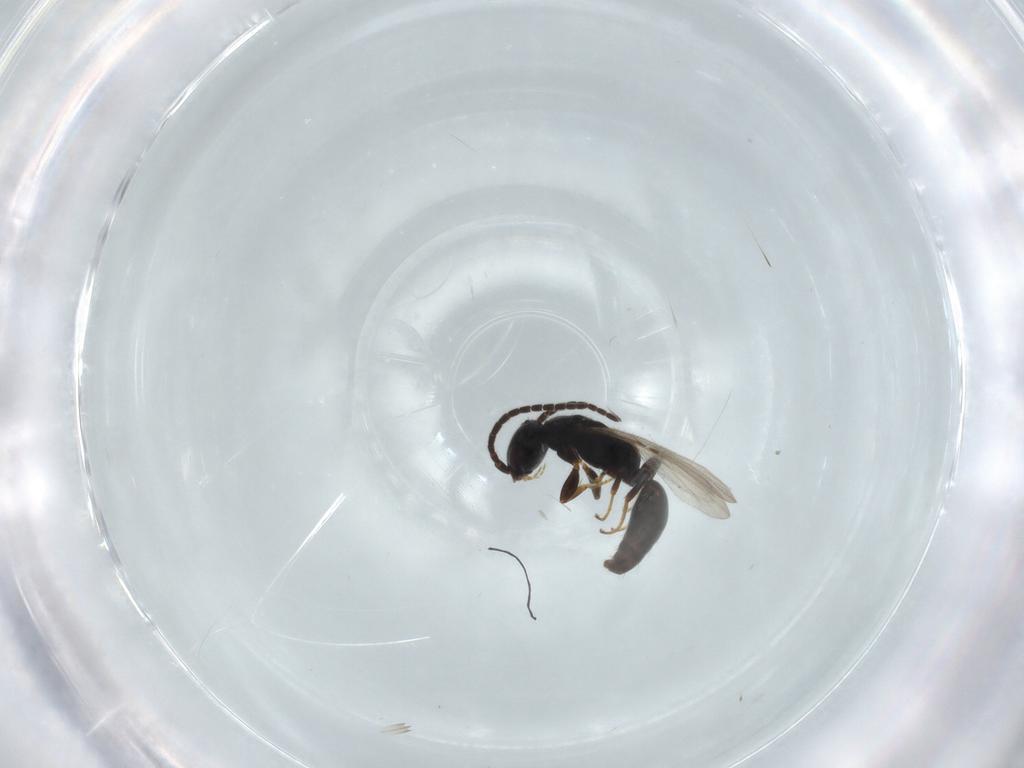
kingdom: Animalia
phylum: Arthropoda
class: Insecta
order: Hymenoptera
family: Bethylidae
